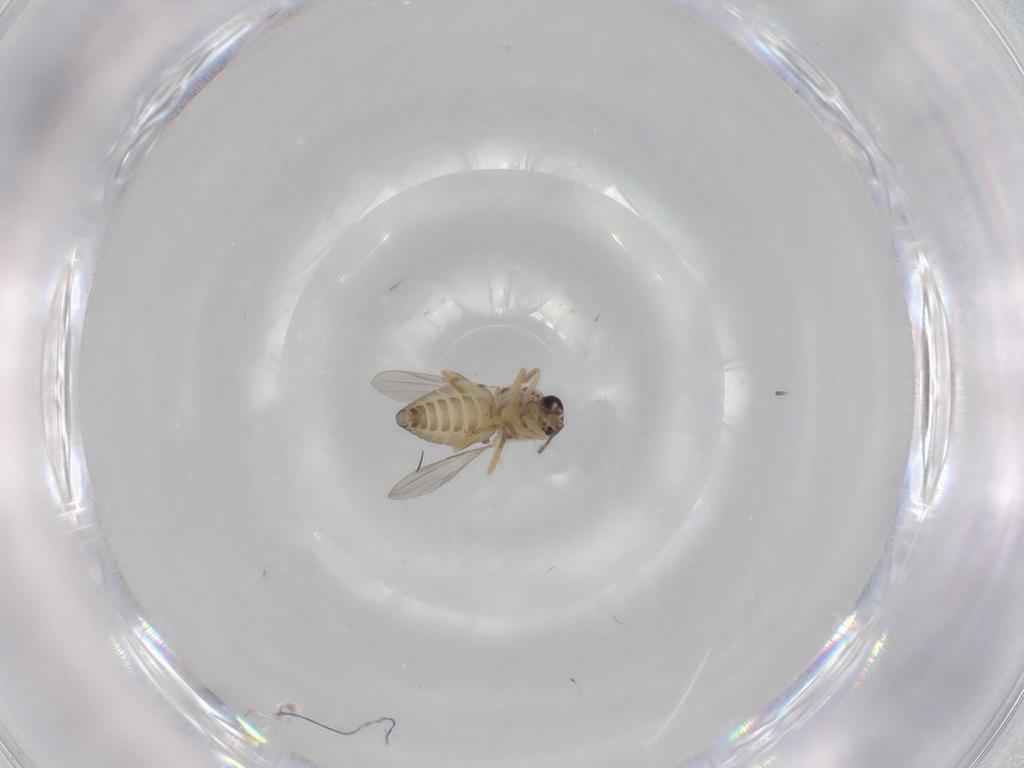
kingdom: Animalia
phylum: Arthropoda
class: Insecta
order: Diptera
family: Ceratopogonidae
